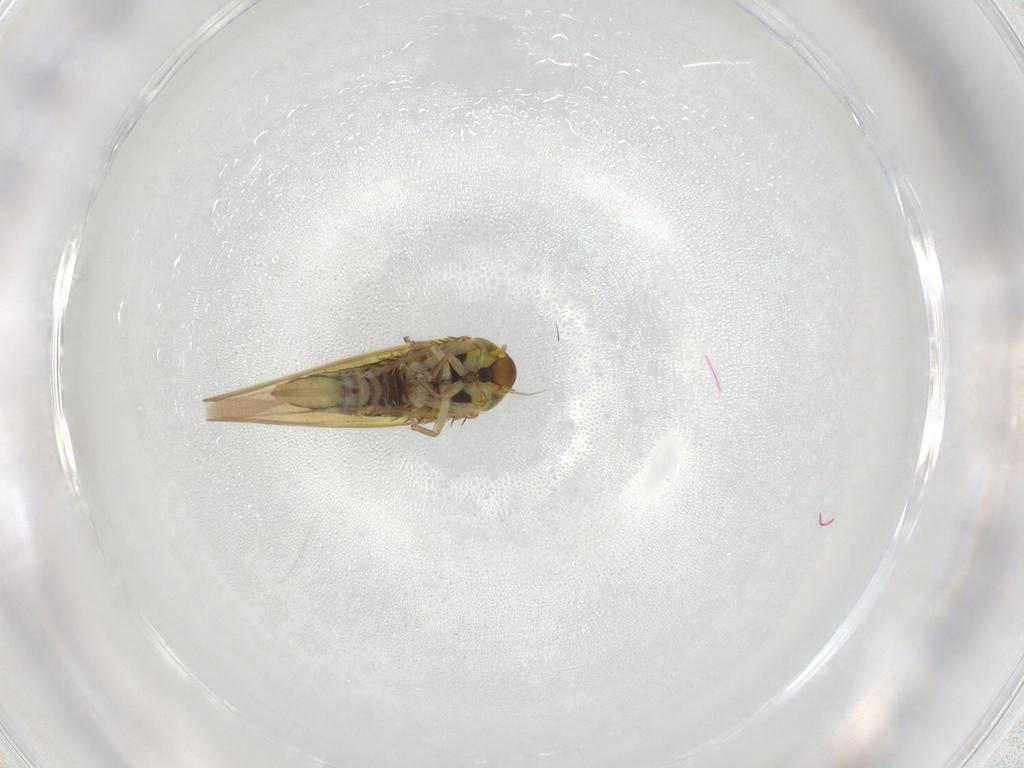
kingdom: Animalia
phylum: Arthropoda
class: Insecta
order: Hemiptera
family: Cicadellidae
